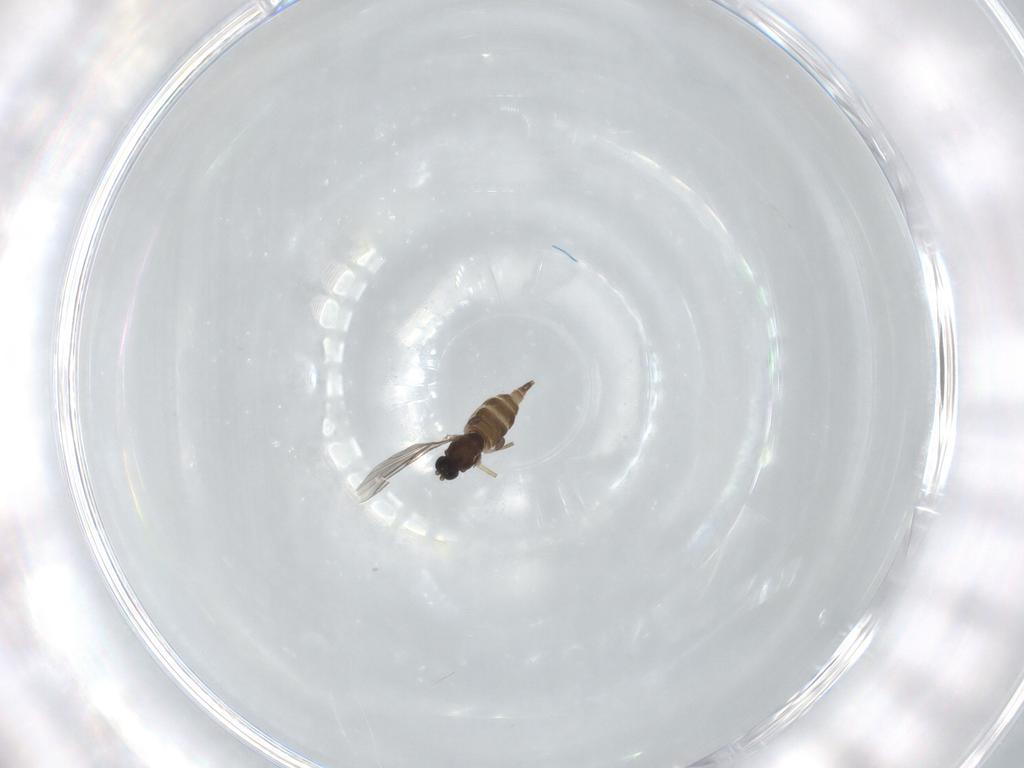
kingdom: Animalia
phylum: Arthropoda
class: Insecta
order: Diptera
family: Sciaridae
